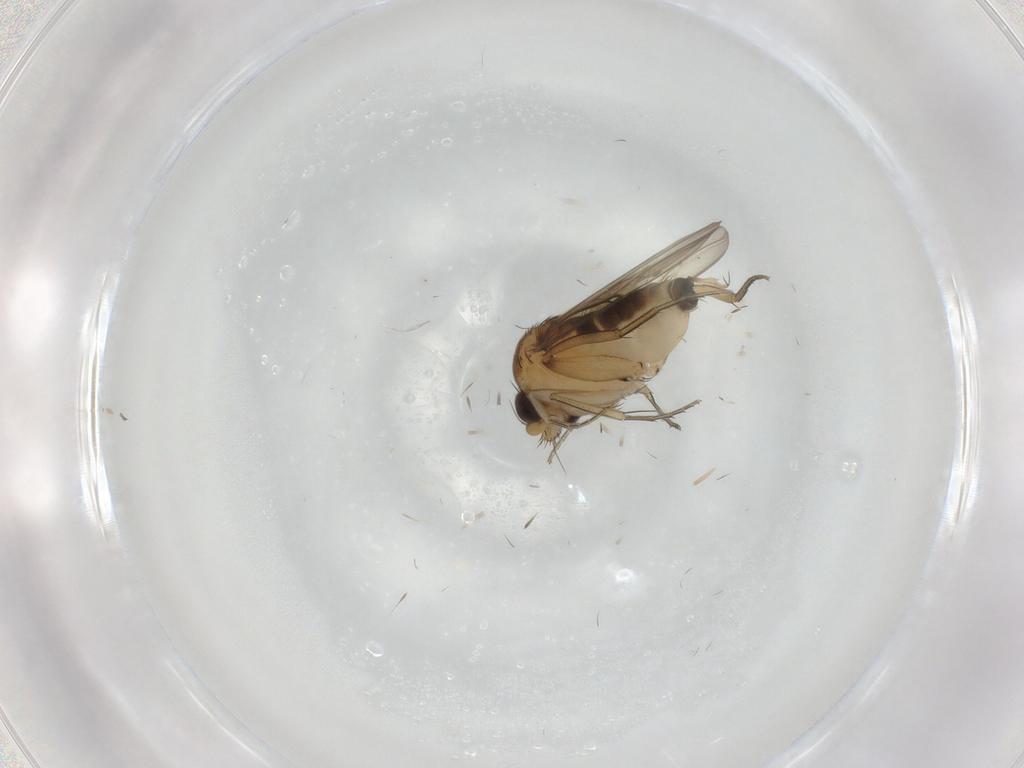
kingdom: Animalia
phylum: Arthropoda
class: Insecta
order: Diptera
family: Phoridae
